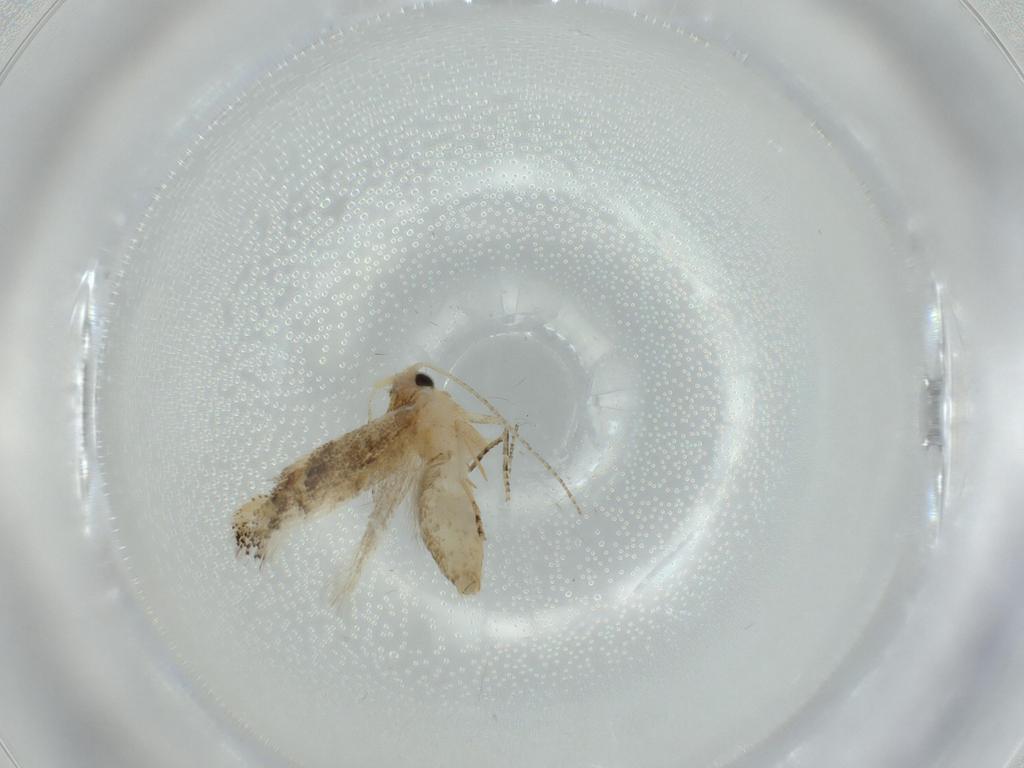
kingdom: Animalia
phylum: Arthropoda
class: Insecta
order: Lepidoptera
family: Bucculatricidae
